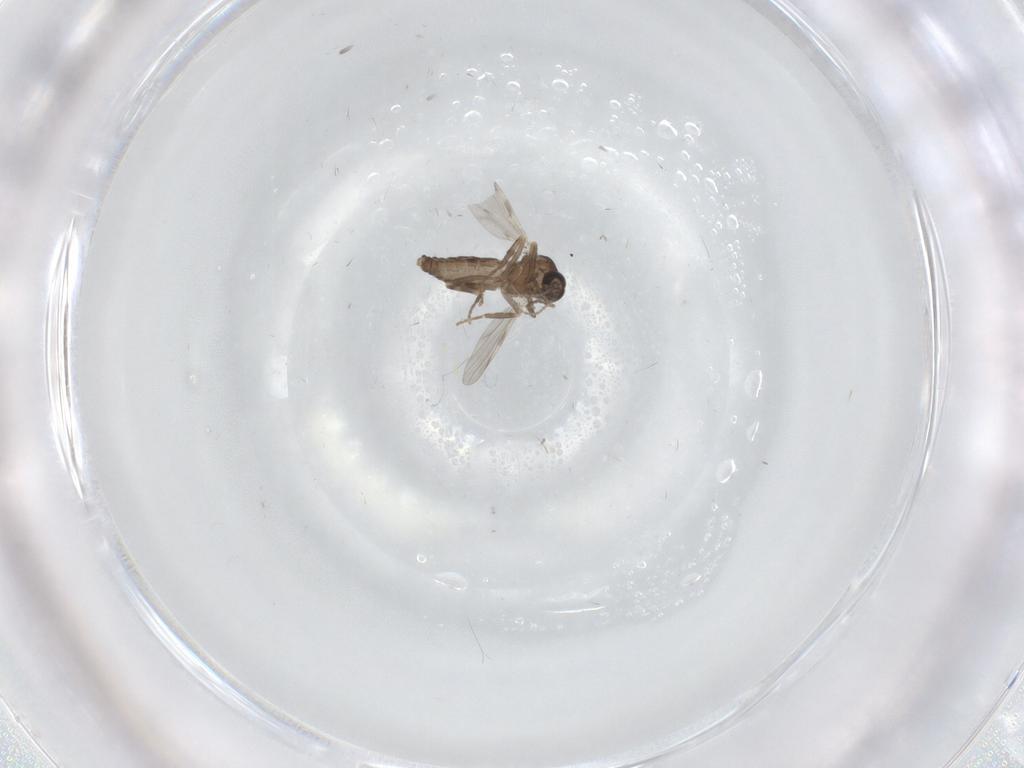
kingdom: Animalia
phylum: Arthropoda
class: Insecta
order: Diptera
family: Ceratopogonidae
